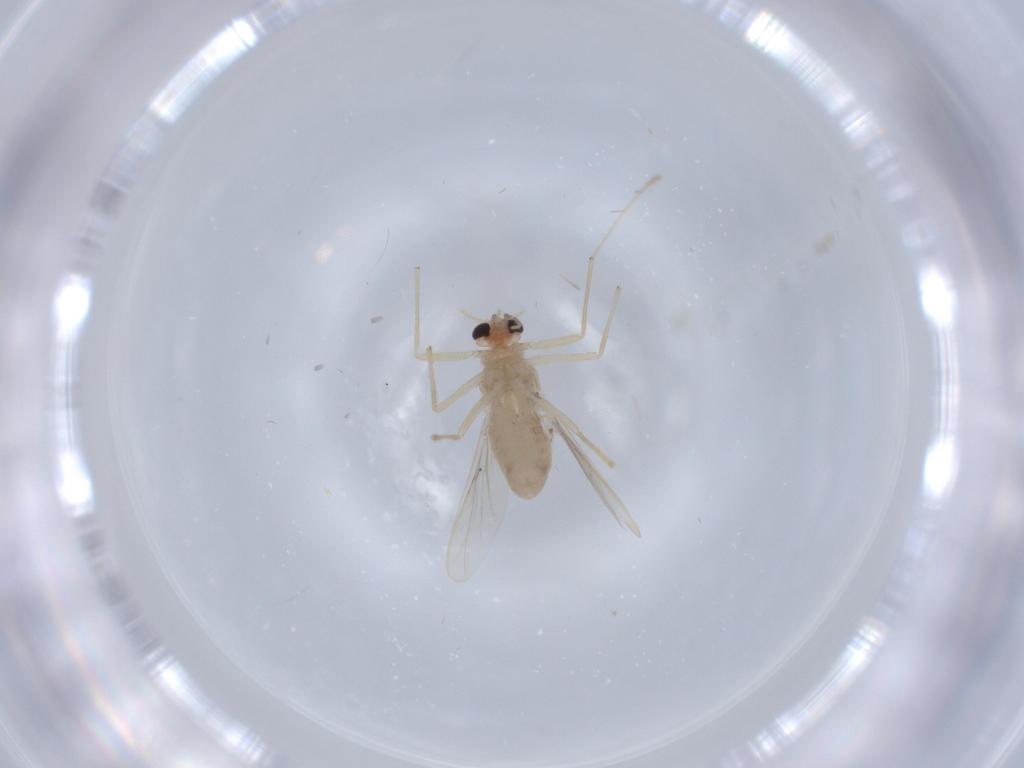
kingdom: Animalia
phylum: Arthropoda
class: Insecta
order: Diptera
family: Chironomidae
